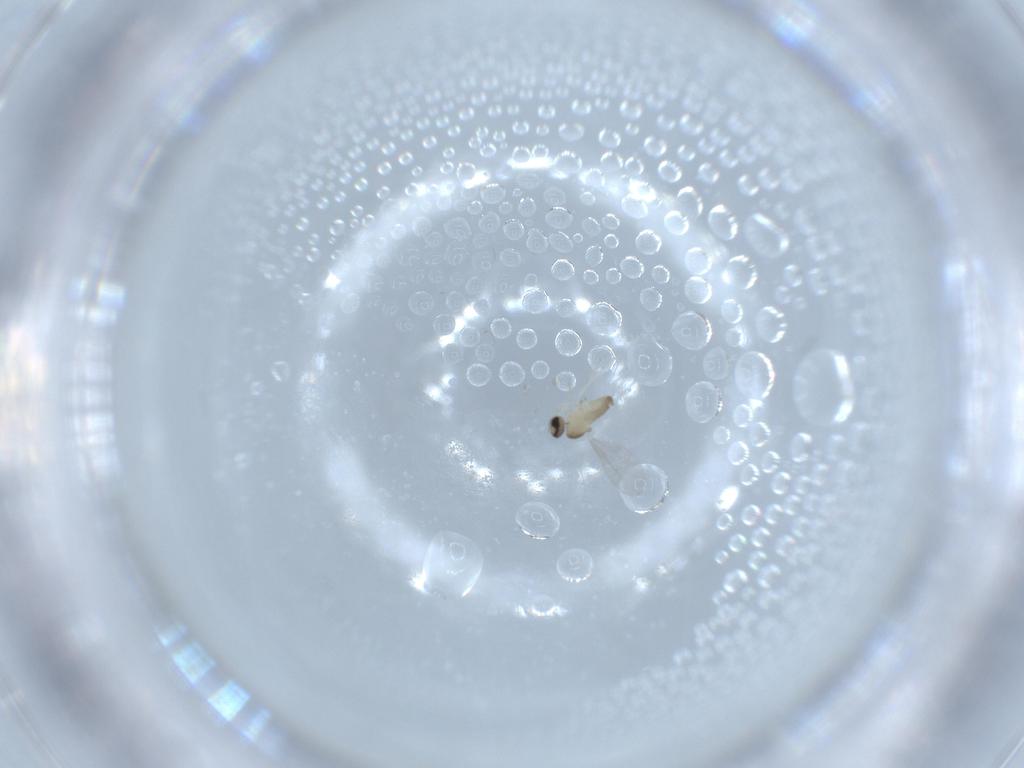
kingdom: Animalia
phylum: Arthropoda
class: Insecta
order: Diptera
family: Cecidomyiidae
